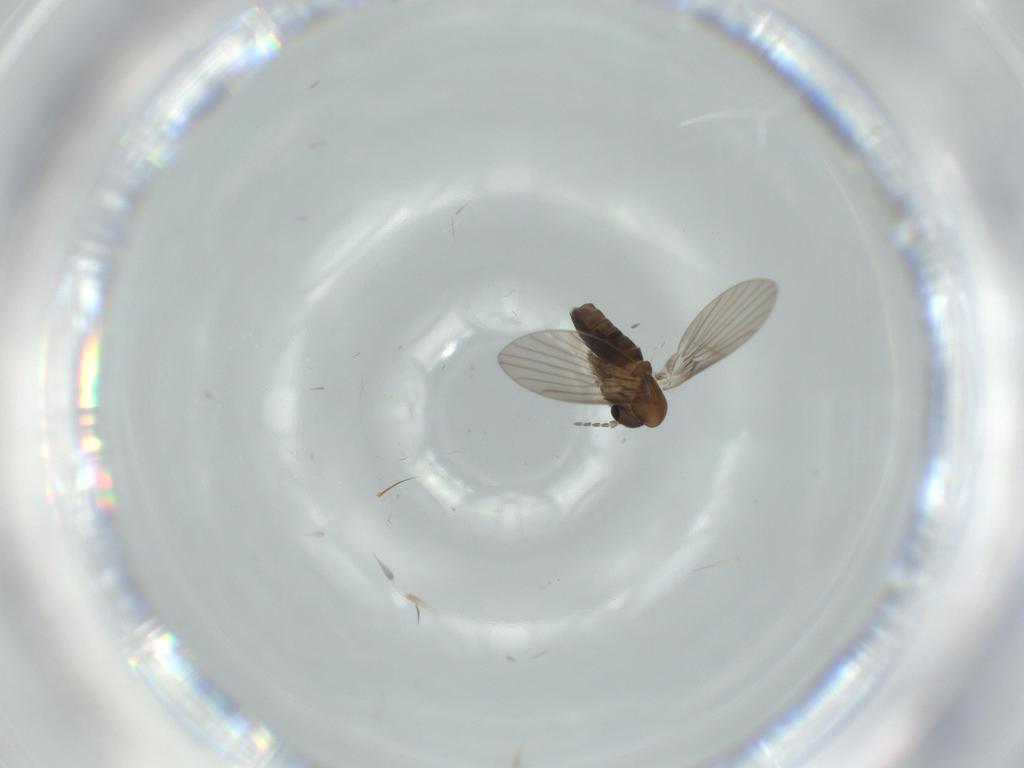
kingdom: Animalia
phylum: Arthropoda
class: Insecta
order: Diptera
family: Psychodidae
